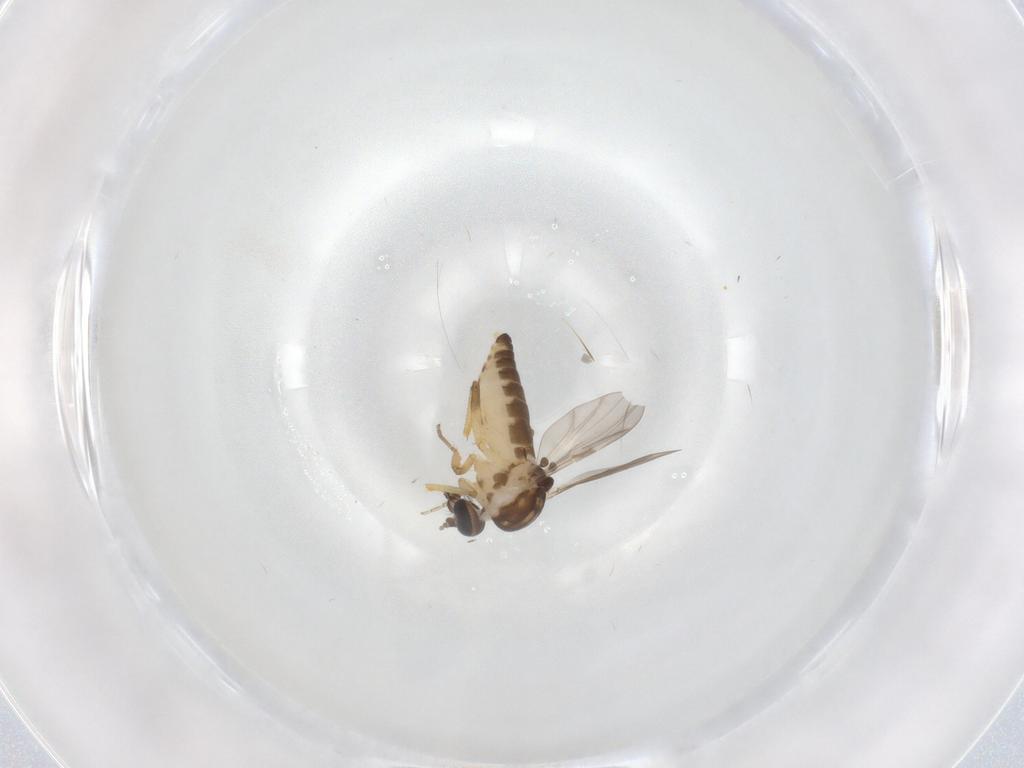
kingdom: Animalia
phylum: Arthropoda
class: Insecta
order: Diptera
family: Ceratopogonidae
